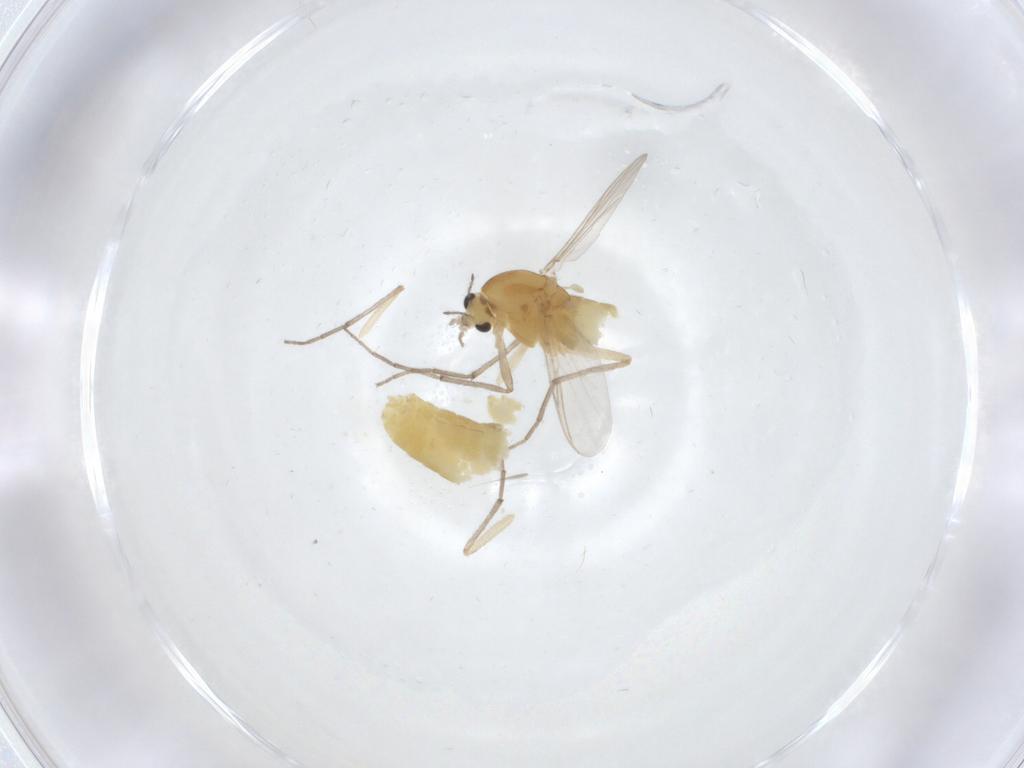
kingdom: Animalia
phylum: Arthropoda
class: Insecta
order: Diptera
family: Chironomidae
